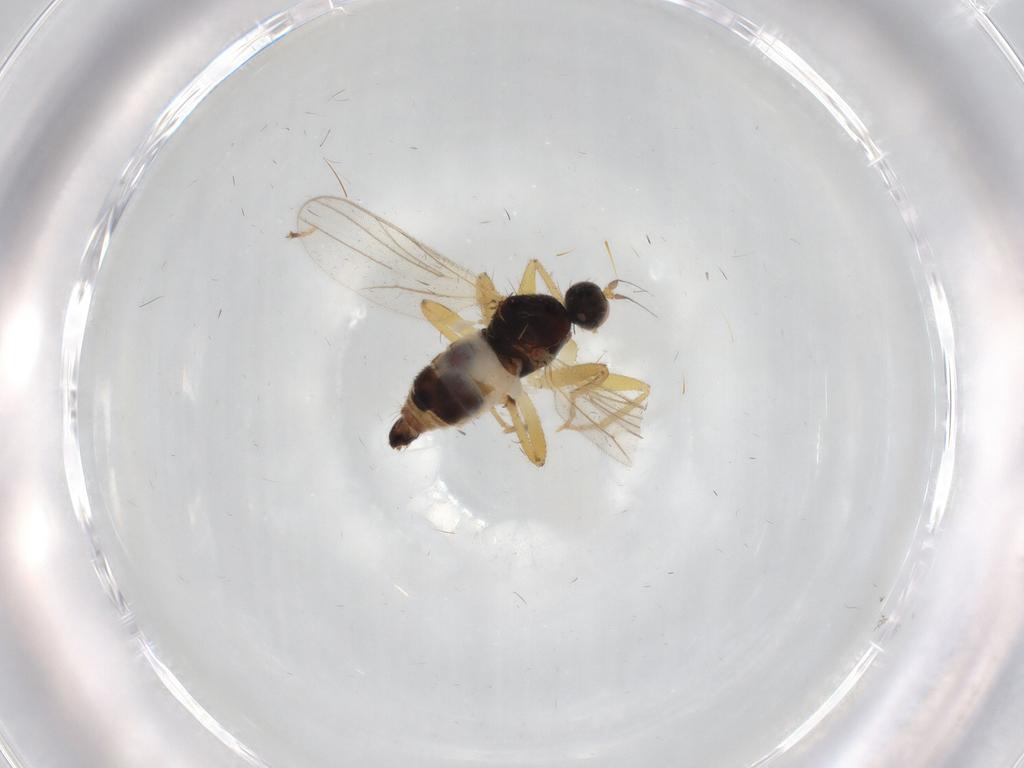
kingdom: Animalia
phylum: Arthropoda
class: Insecta
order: Diptera
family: Hybotidae
